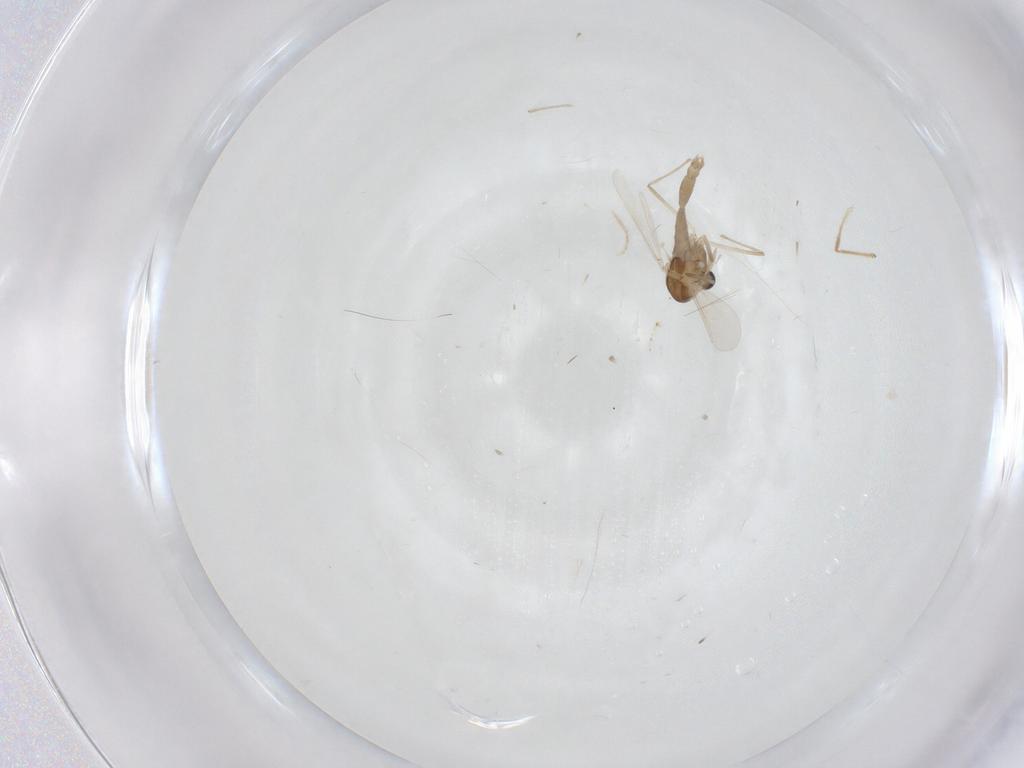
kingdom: Animalia
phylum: Arthropoda
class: Insecta
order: Diptera
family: Chironomidae
